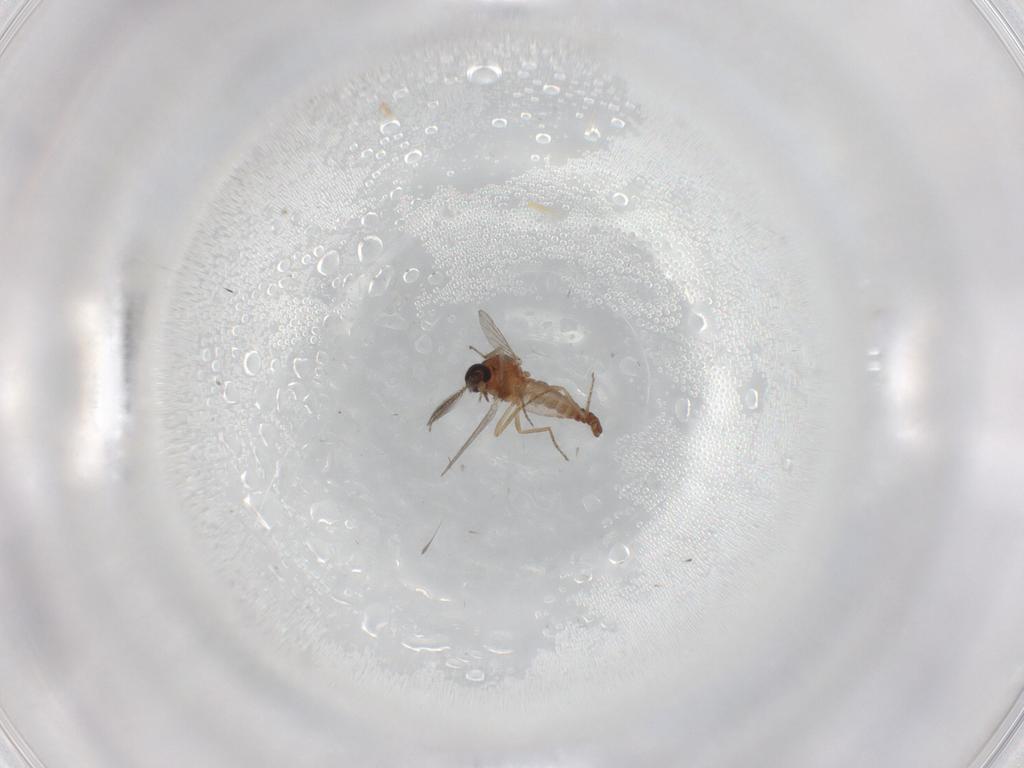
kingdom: Animalia
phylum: Arthropoda
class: Insecta
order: Diptera
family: Ceratopogonidae
